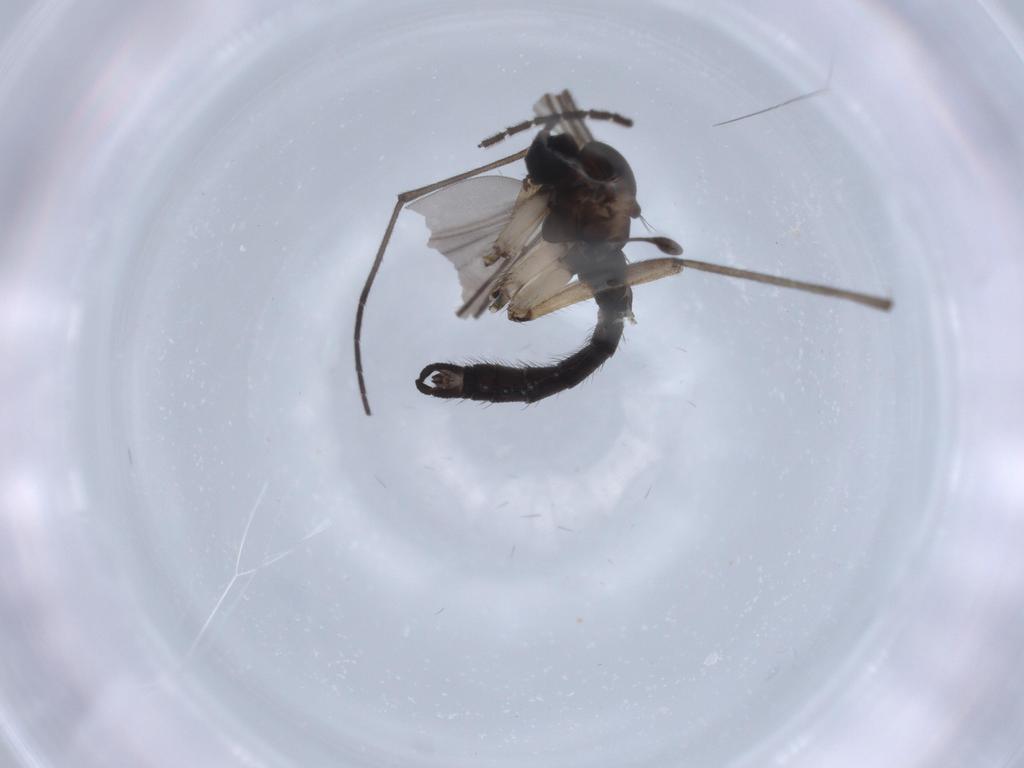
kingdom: Animalia
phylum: Arthropoda
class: Insecta
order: Diptera
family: Sciaridae
